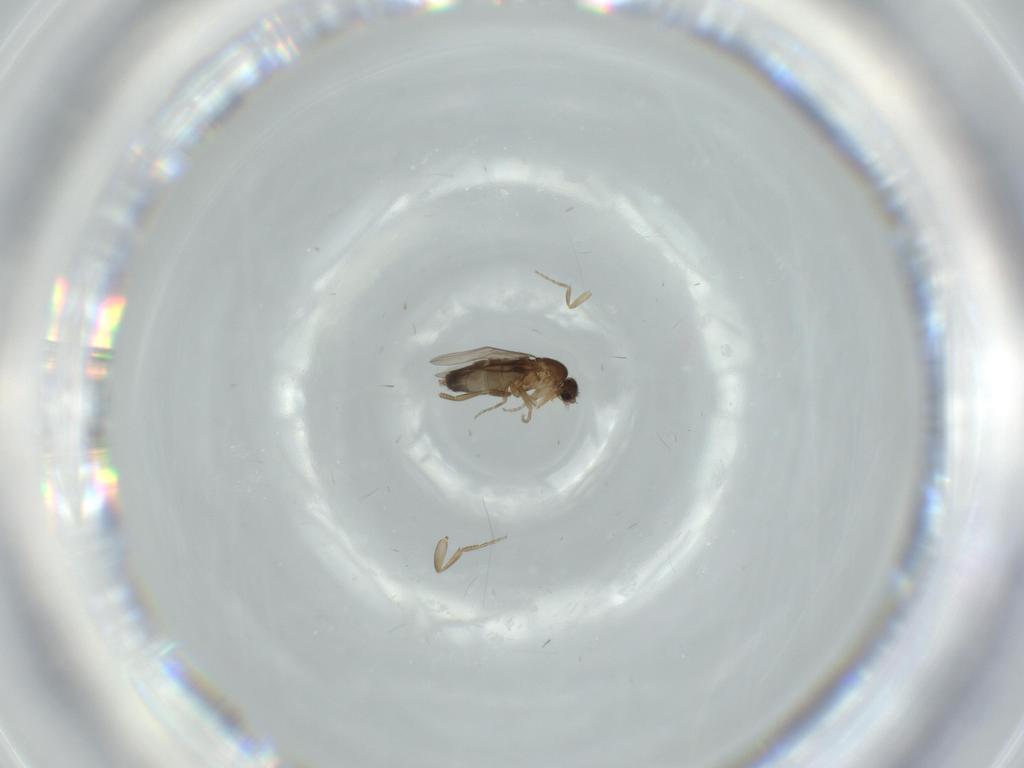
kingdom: Animalia
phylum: Arthropoda
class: Insecta
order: Diptera
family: Phoridae
